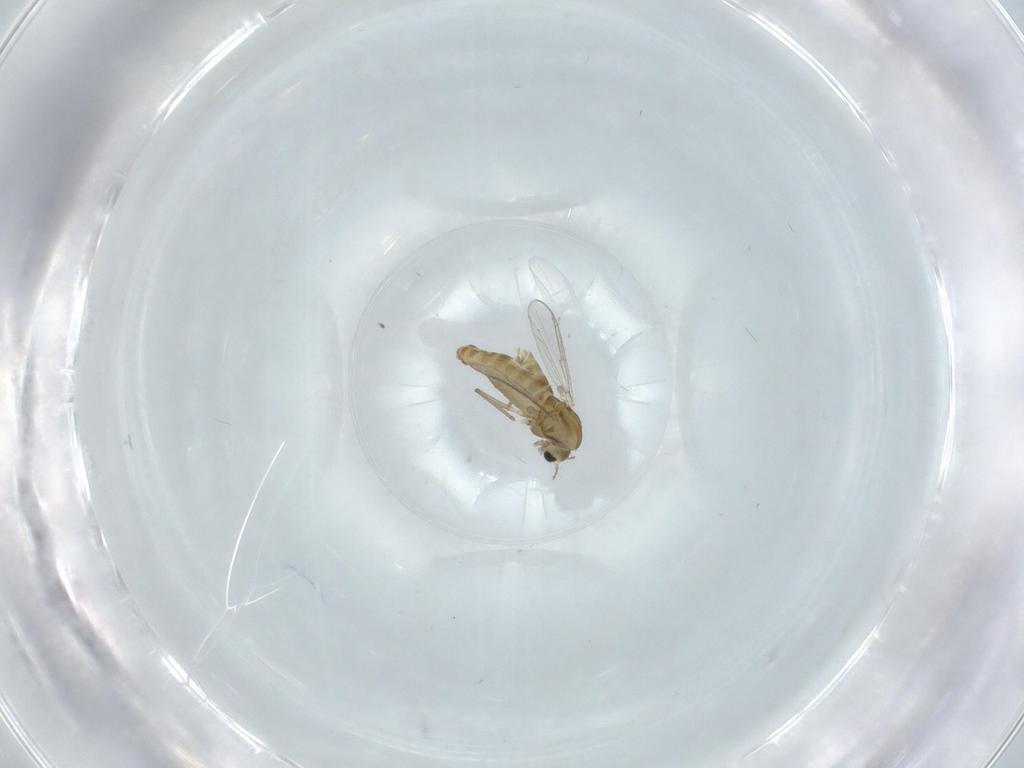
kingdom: Animalia
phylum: Arthropoda
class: Insecta
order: Diptera
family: Chironomidae
